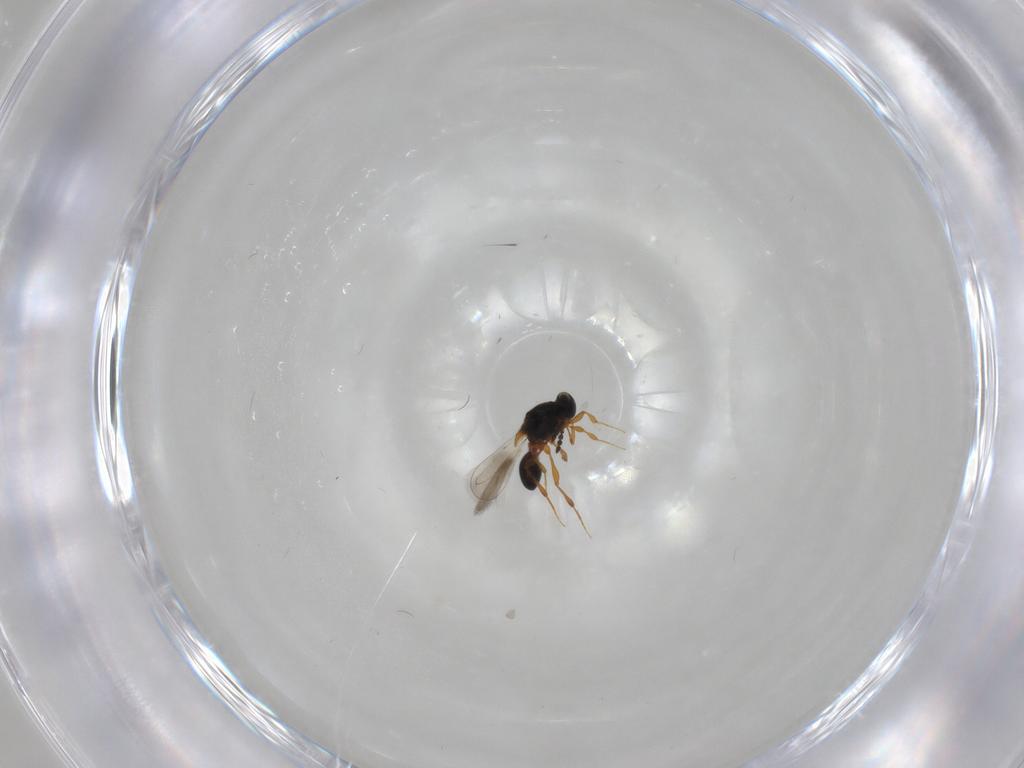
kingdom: Animalia
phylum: Arthropoda
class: Insecta
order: Hymenoptera
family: Platygastridae
